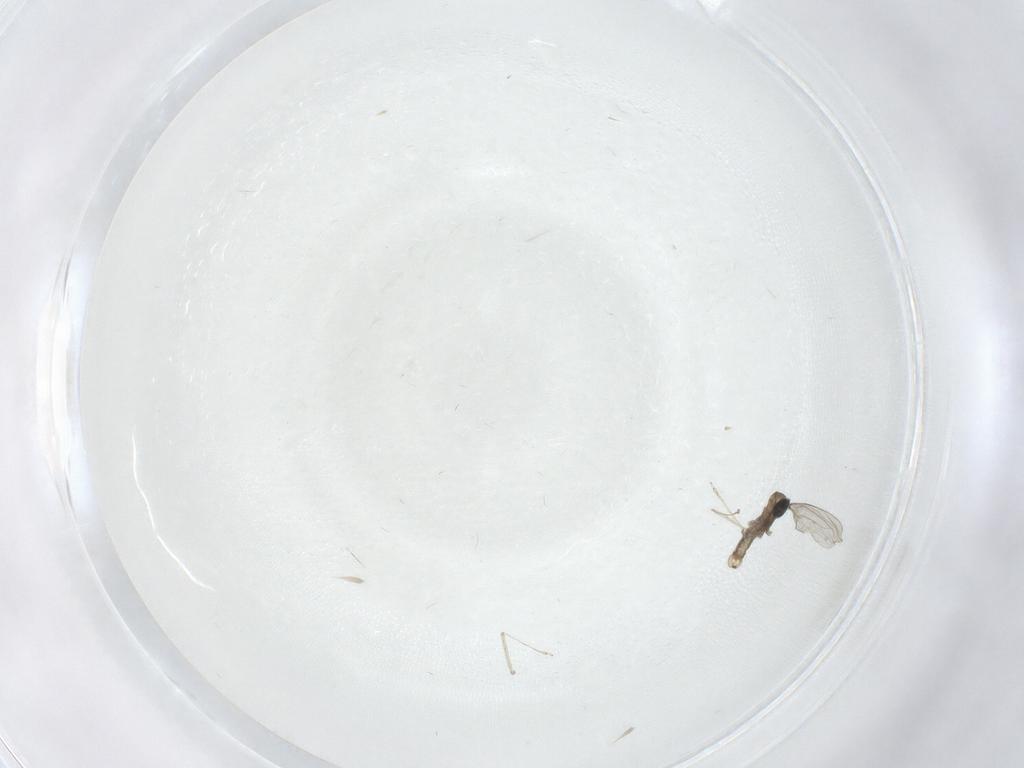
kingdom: Animalia
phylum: Arthropoda
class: Insecta
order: Diptera
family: Cecidomyiidae
